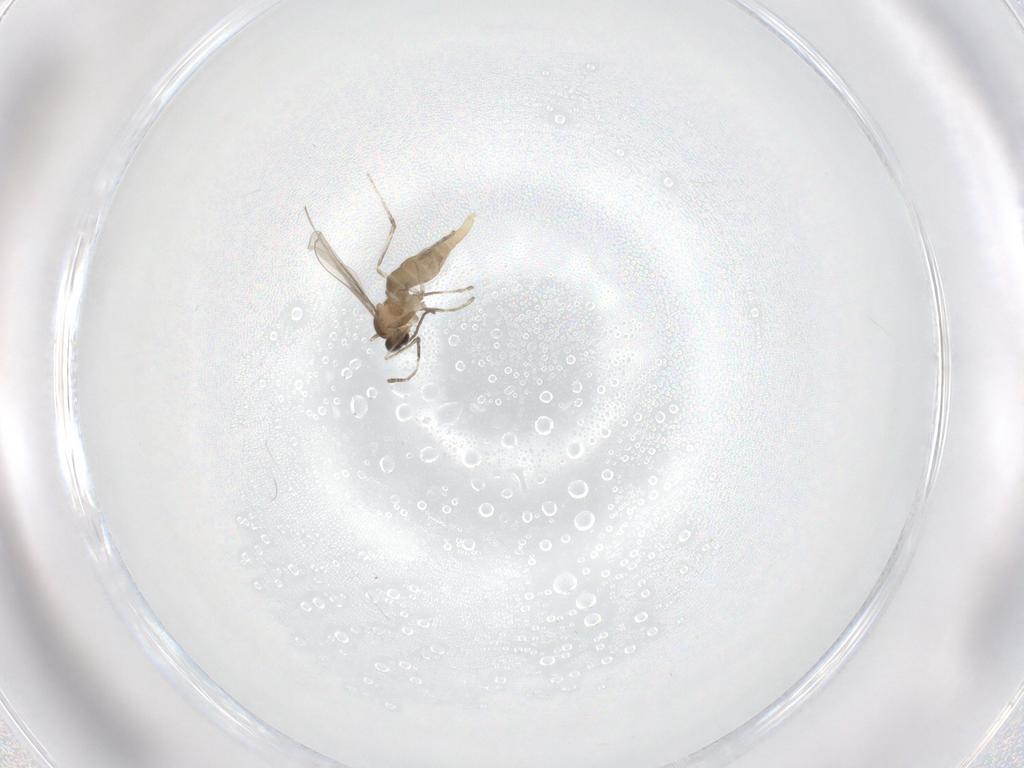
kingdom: Animalia
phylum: Arthropoda
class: Insecta
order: Diptera
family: Cecidomyiidae
